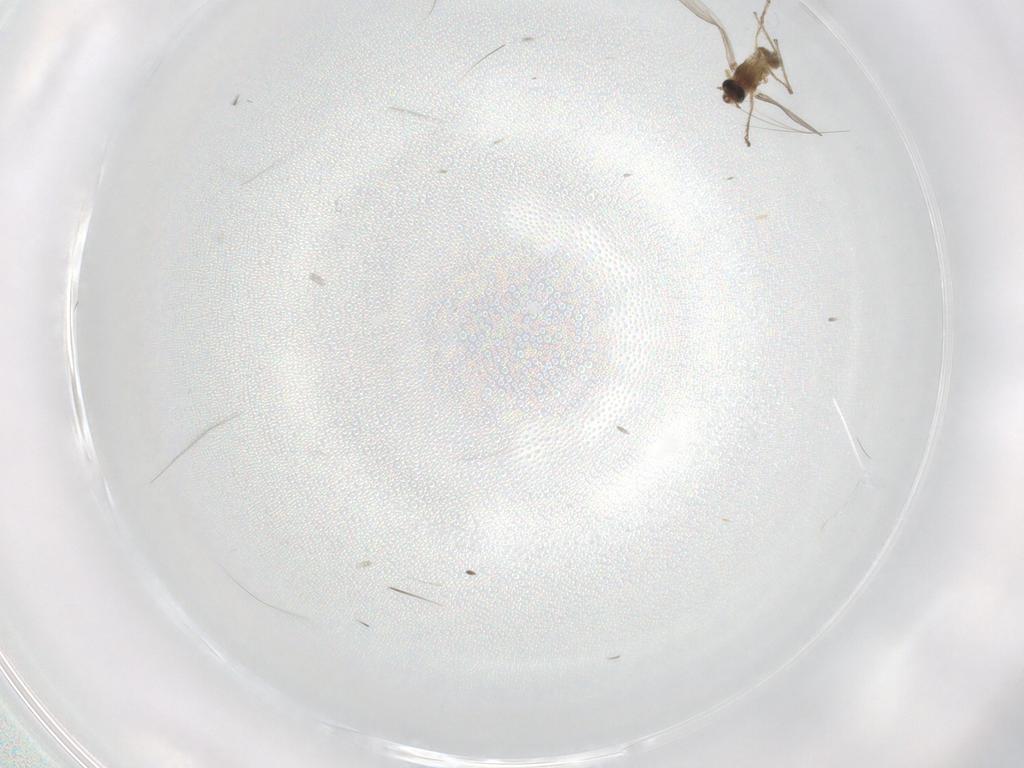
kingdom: Animalia
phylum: Arthropoda
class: Insecta
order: Diptera
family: Chironomidae
